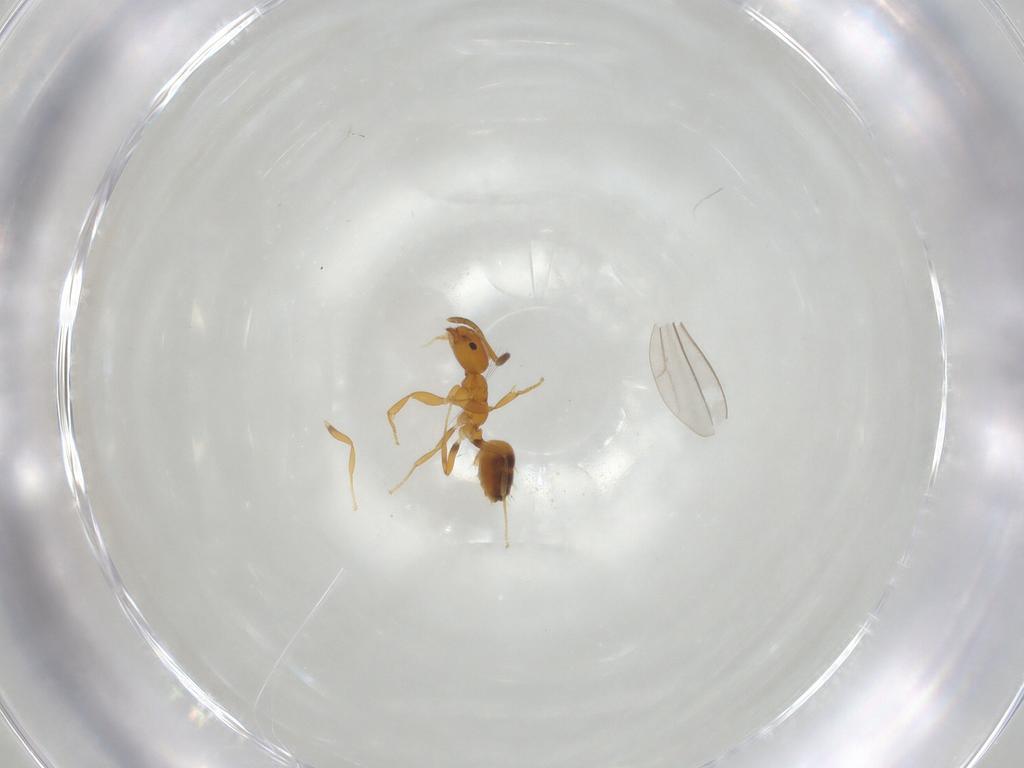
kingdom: Animalia
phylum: Arthropoda
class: Insecta
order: Hymenoptera
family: Formicidae
